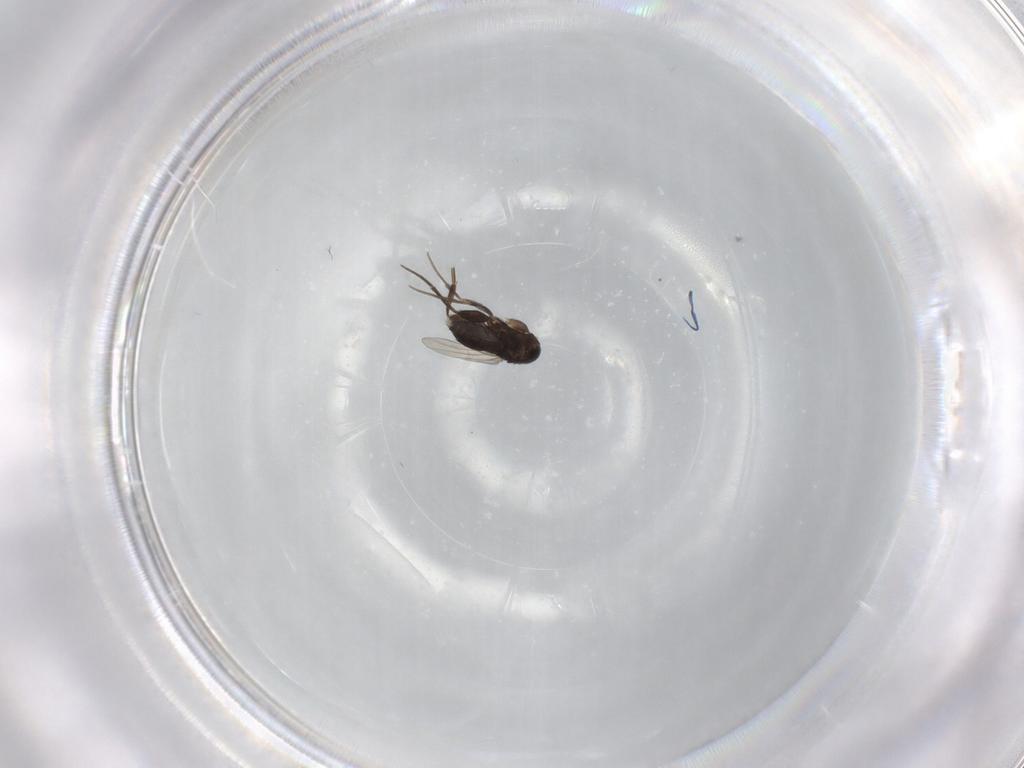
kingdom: Animalia
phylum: Arthropoda
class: Insecta
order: Diptera
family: Phoridae
